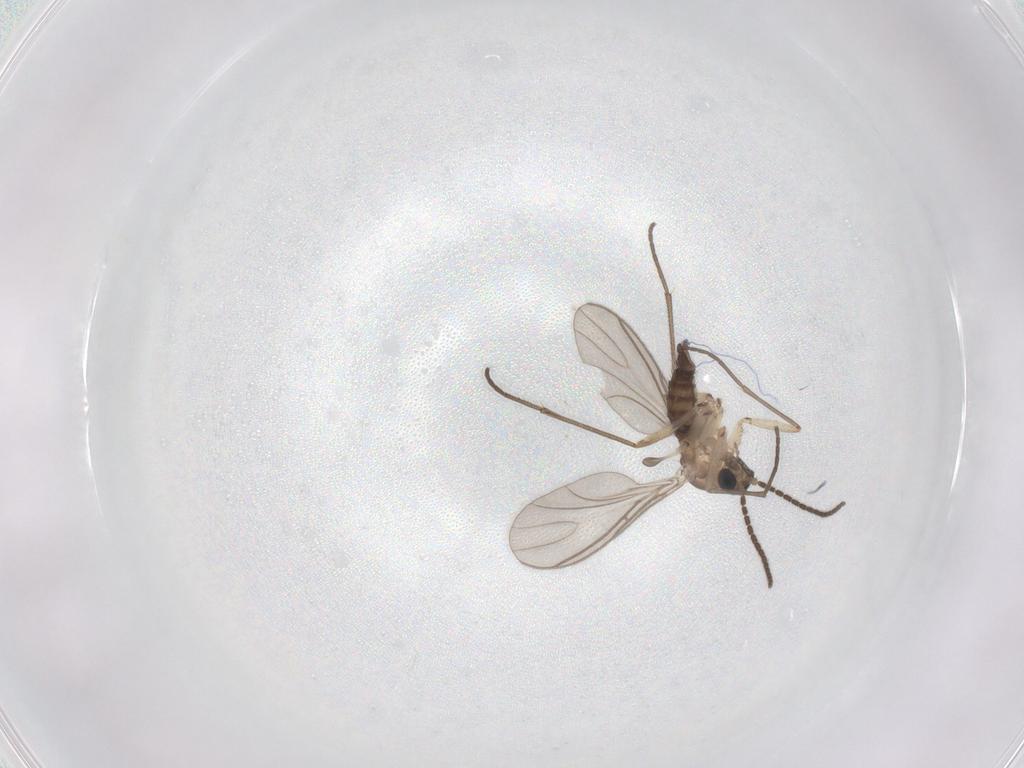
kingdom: Animalia
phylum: Arthropoda
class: Insecta
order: Diptera
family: Sciaridae
